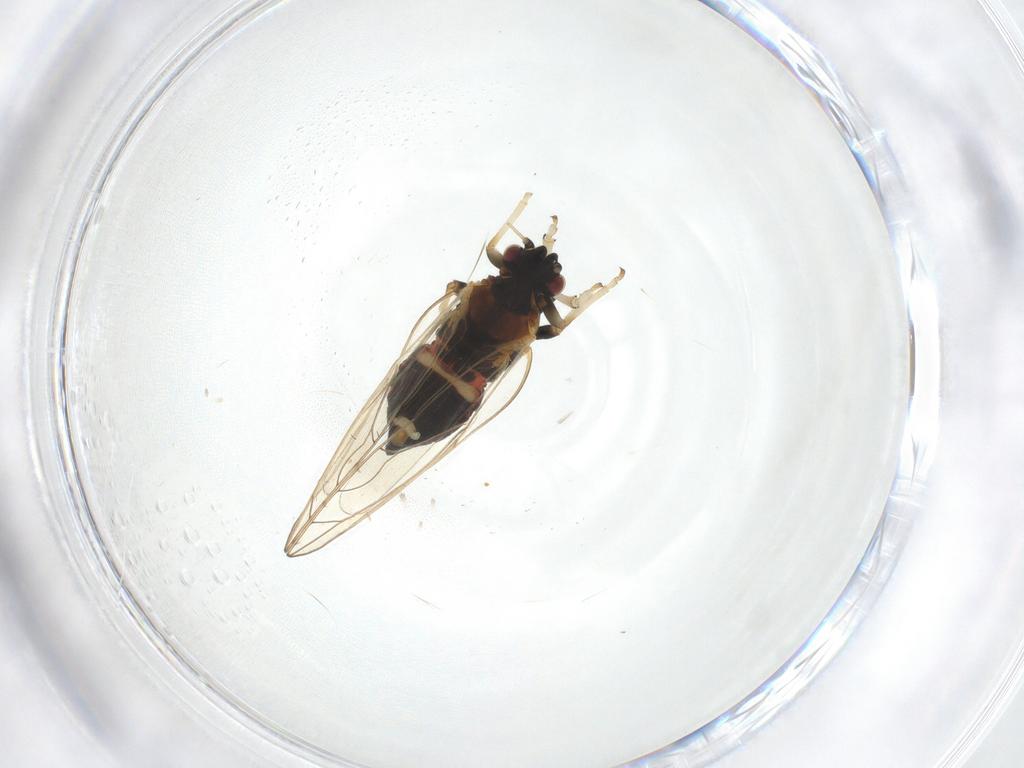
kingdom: Animalia
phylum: Arthropoda
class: Insecta
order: Hemiptera
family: Triozidae
